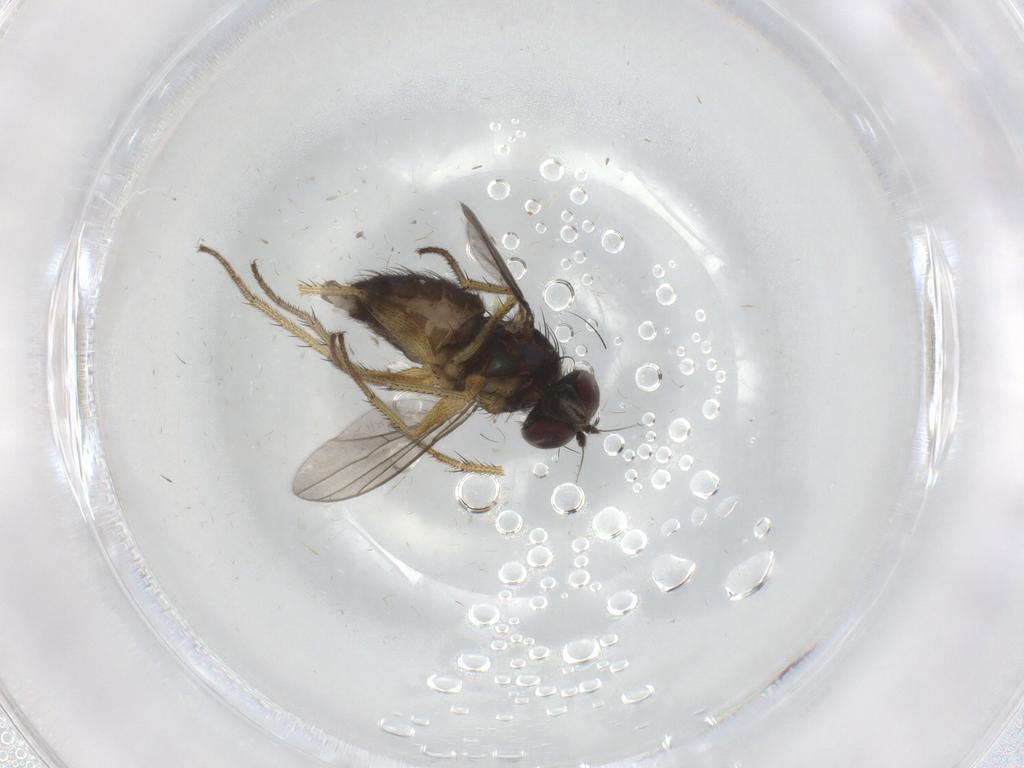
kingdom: Animalia
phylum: Arthropoda
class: Insecta
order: Diptera
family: Dolichopodidae
